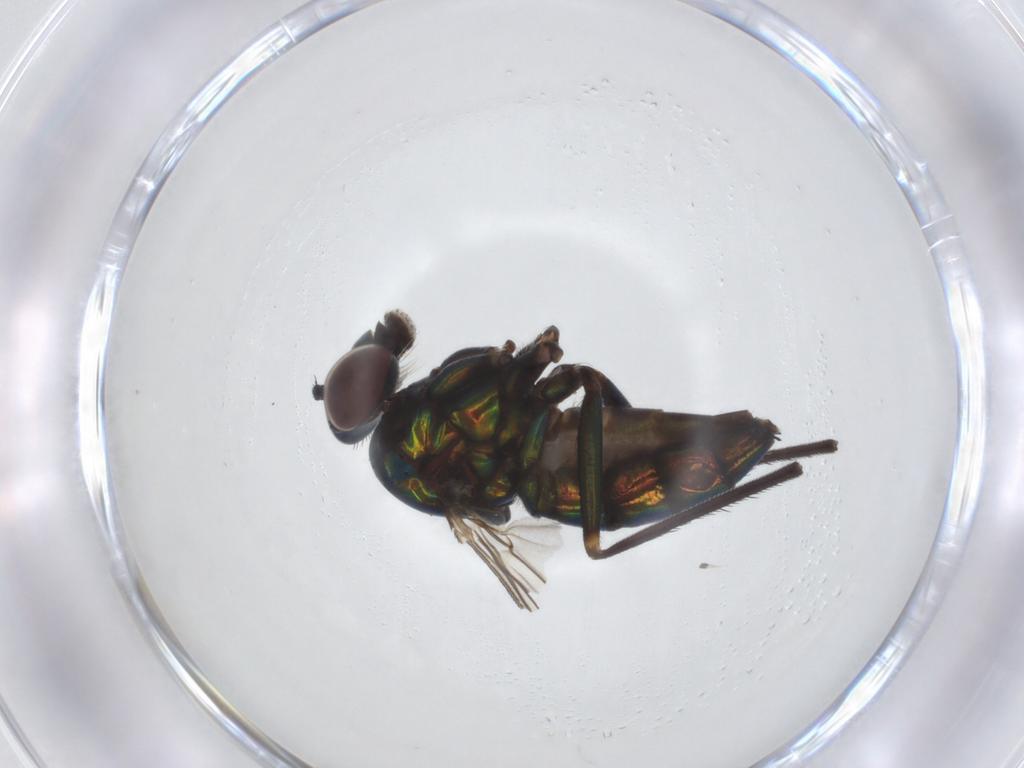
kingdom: Animalia
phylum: Arthropoda
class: Insecta
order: Diptera
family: Dolichopodidae
